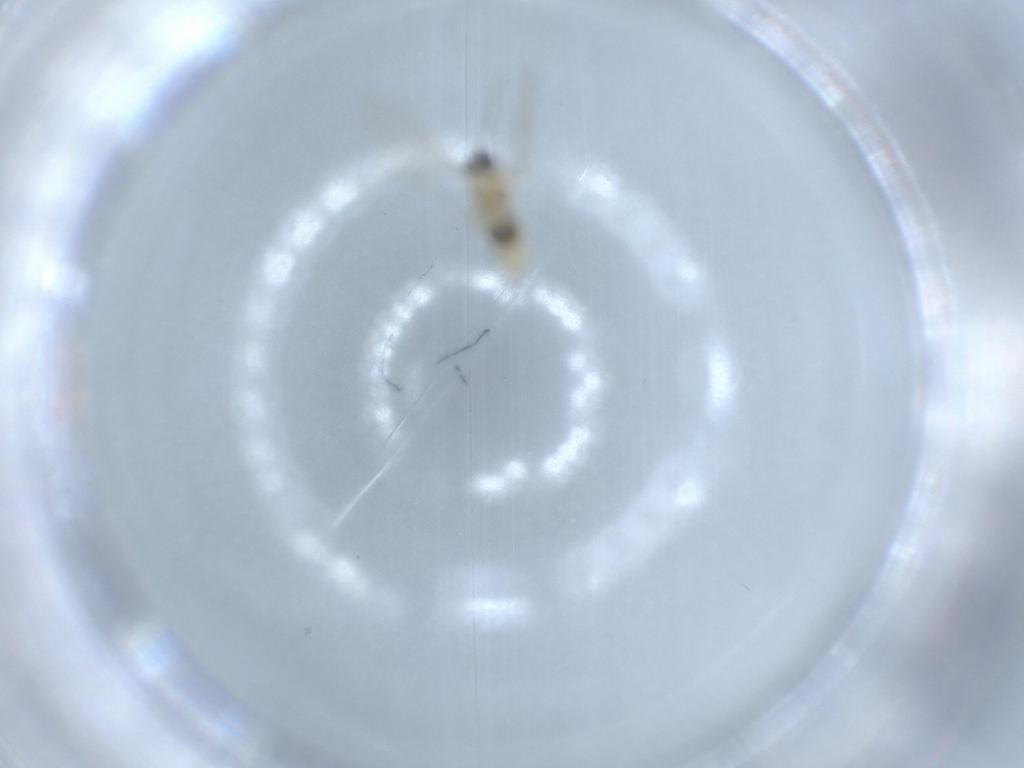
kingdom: Animalia
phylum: Arthropoda
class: Insecta
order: Diptera
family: Cecidomyiidae
